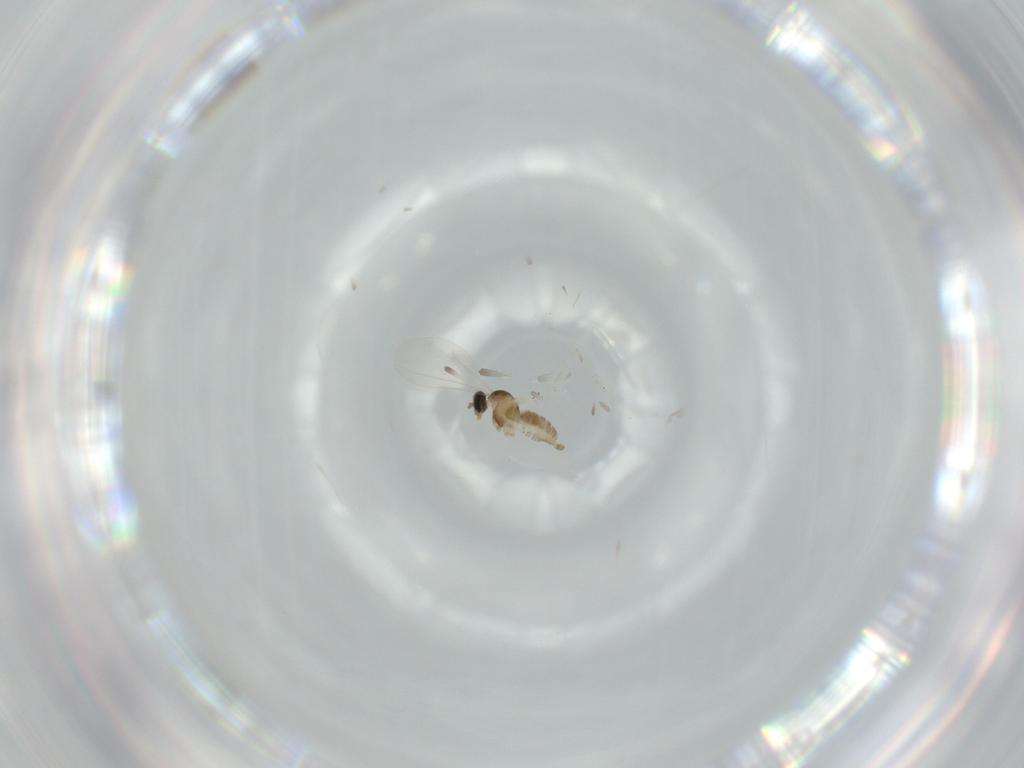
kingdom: Animalia
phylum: Arthropoda
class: Insecta
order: Diptera
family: Cecidomyiidae
